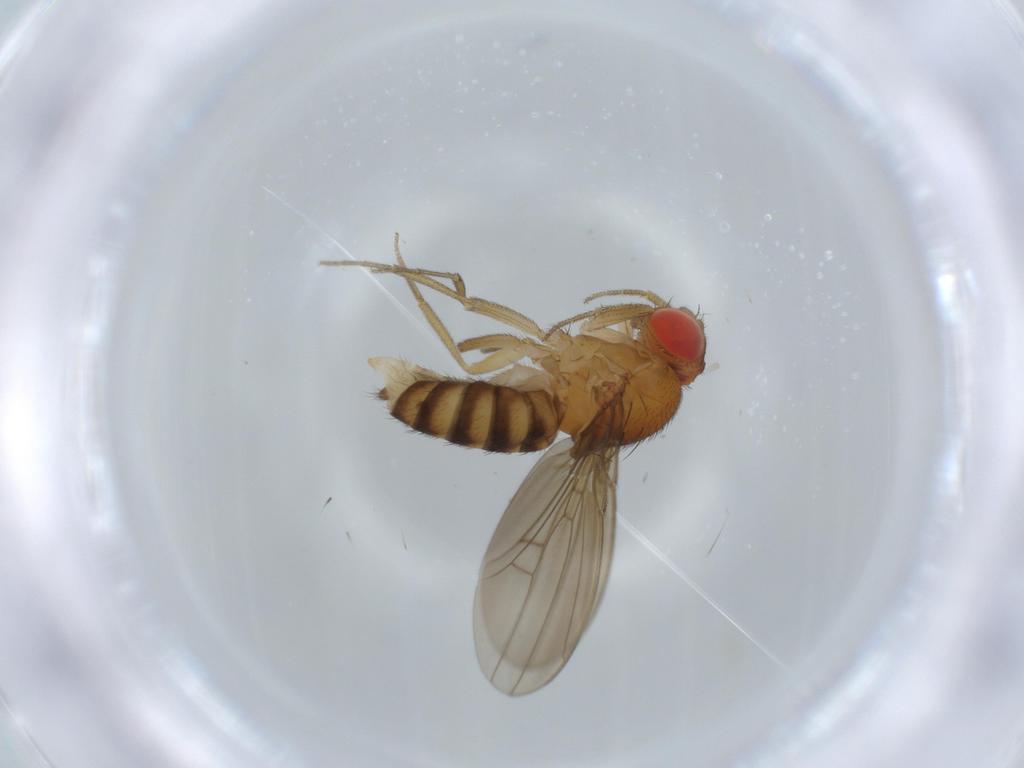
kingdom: Animalia
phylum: Arthropoda
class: Insecta
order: Diptera
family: Drosophilidae
